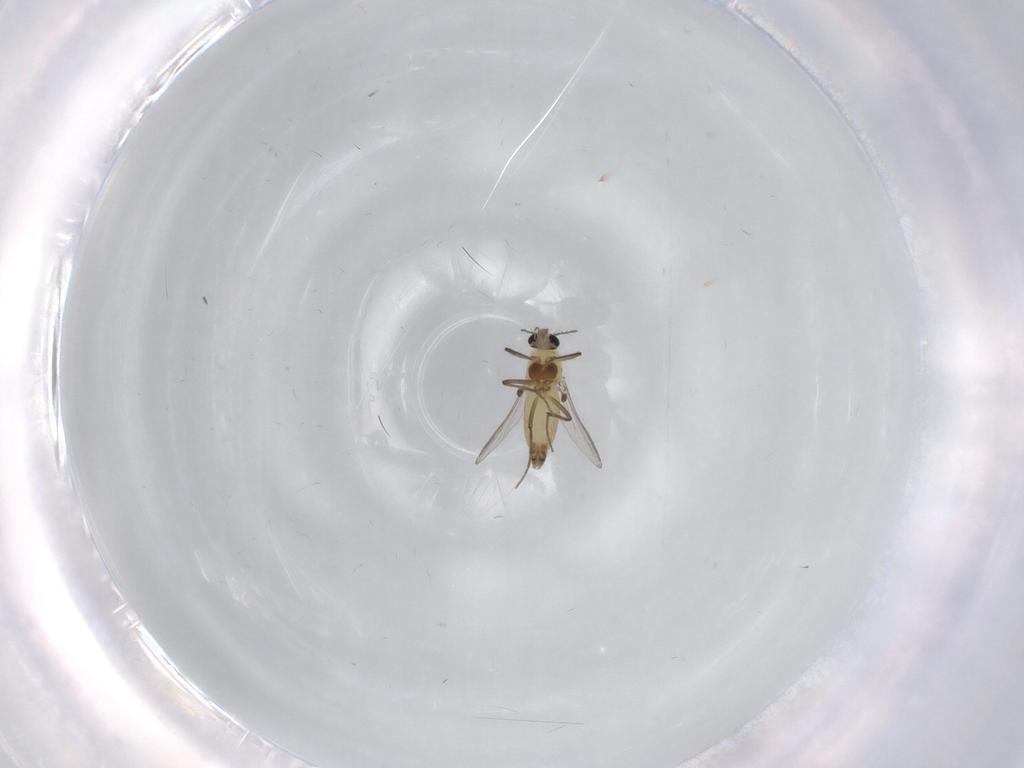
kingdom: Animalia
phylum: Arthropoda
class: Insecta
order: Diptera
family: Chironomidae
